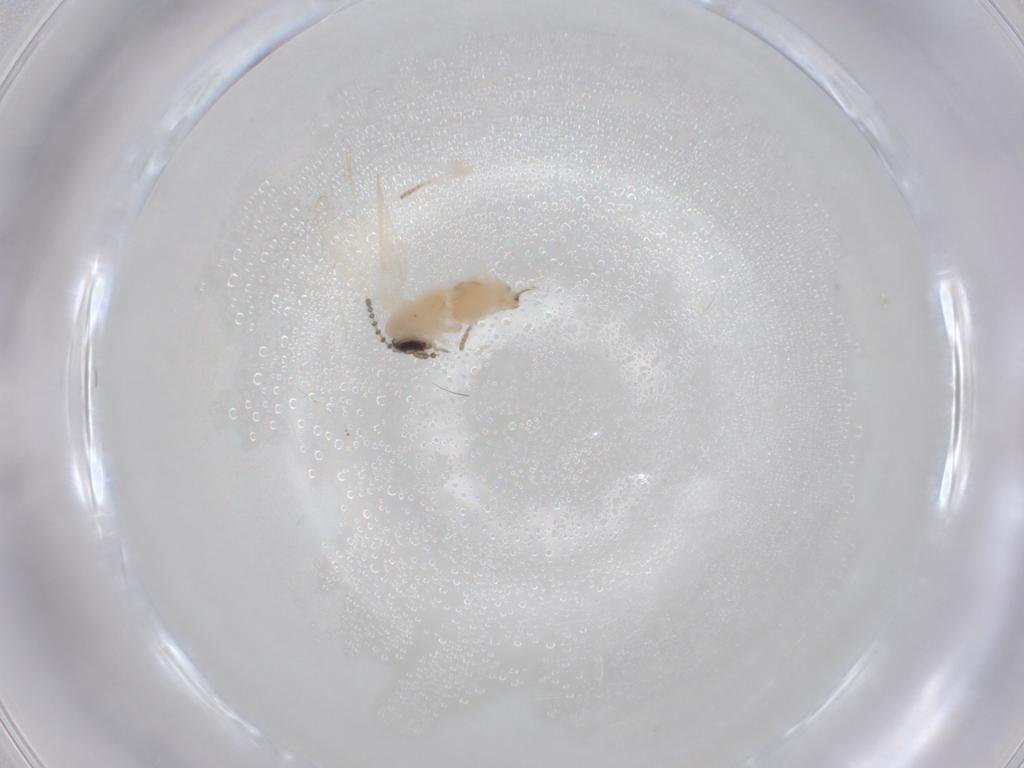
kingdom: Animalia
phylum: Arthropoda
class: Insecta
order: Diptera
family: Psychodidae
